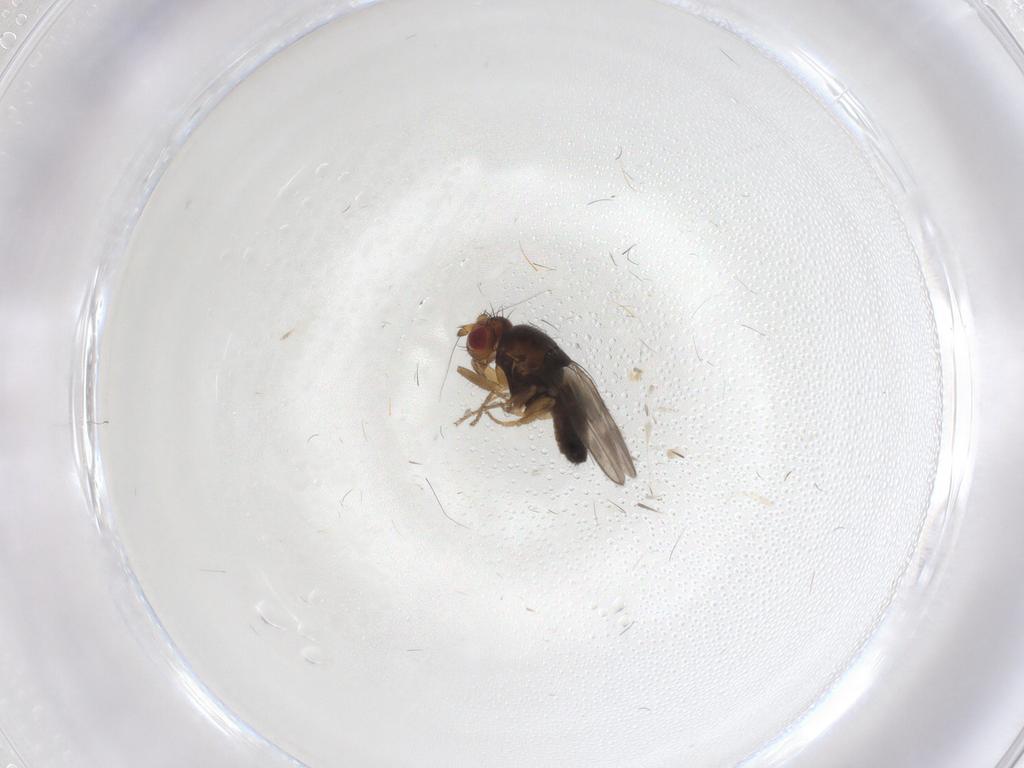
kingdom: Animalia
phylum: Arthropoda
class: Insecta
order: Diptera
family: Sphaeroceridae
